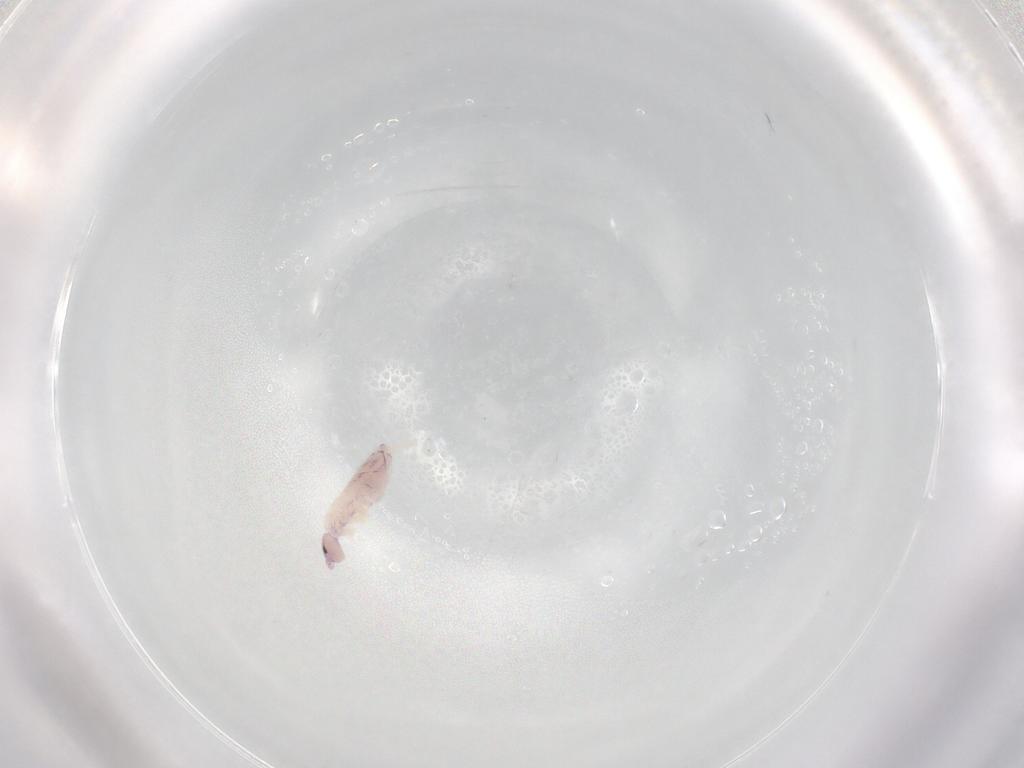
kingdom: Animalia
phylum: Arthropoda
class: Collembola
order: Entomobryomorpha
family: Entomobryidae
